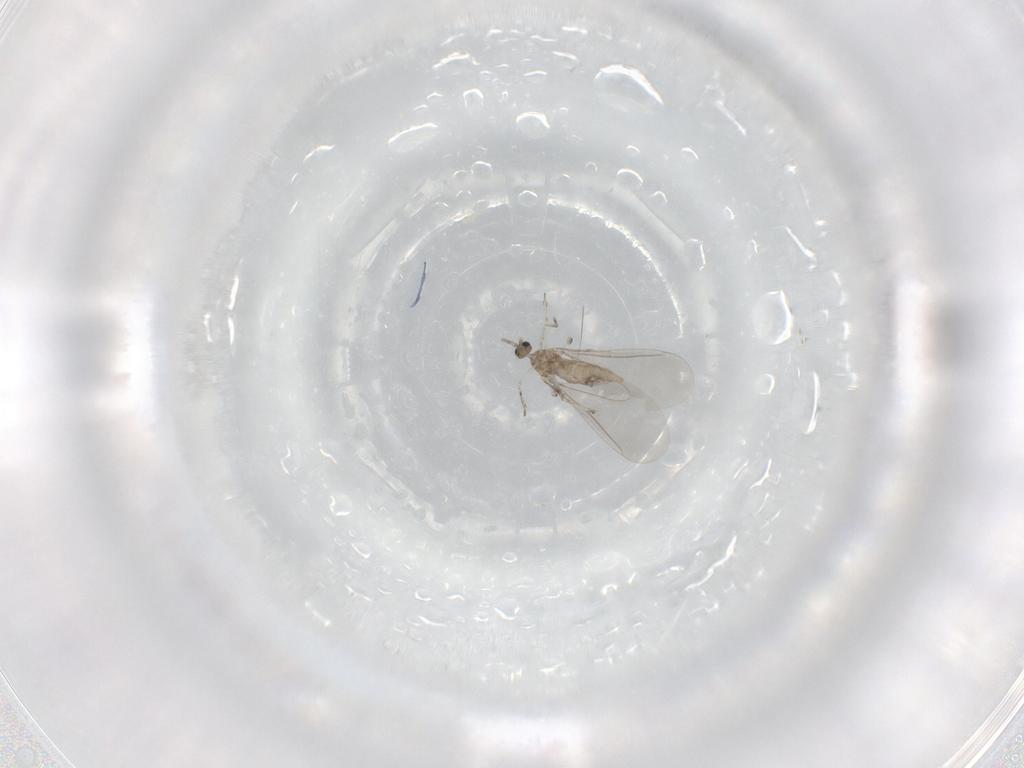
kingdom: Animalia
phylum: Arthropoda
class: Insecta
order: Diptera
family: Cecidomyiidae
